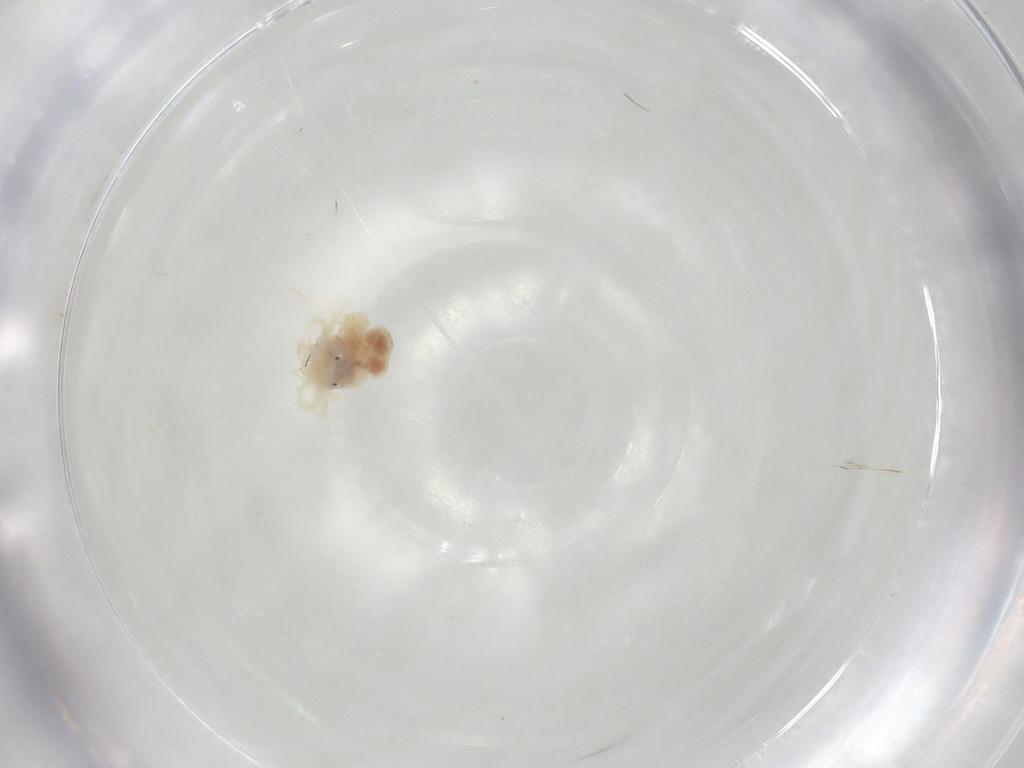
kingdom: Animalia
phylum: Arthropoda
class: Arachnida
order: Trombidiformes
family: Anystidae
